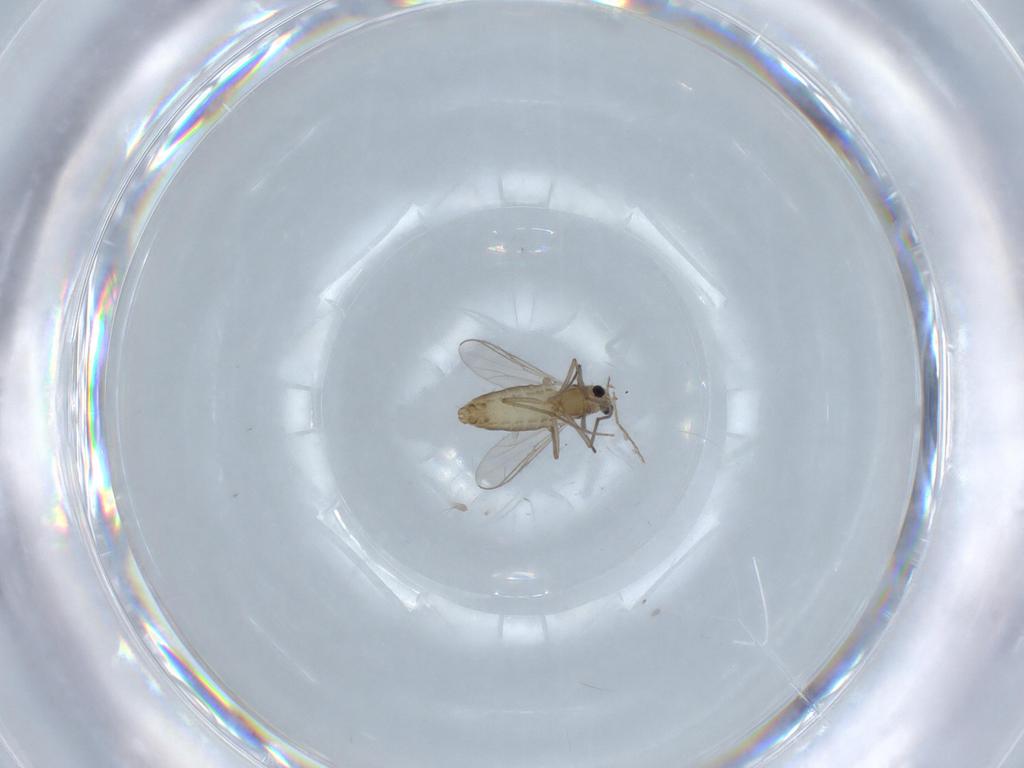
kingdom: Animalia
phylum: Arthropoda
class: Insecta
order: Diptera
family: Chironomidae
